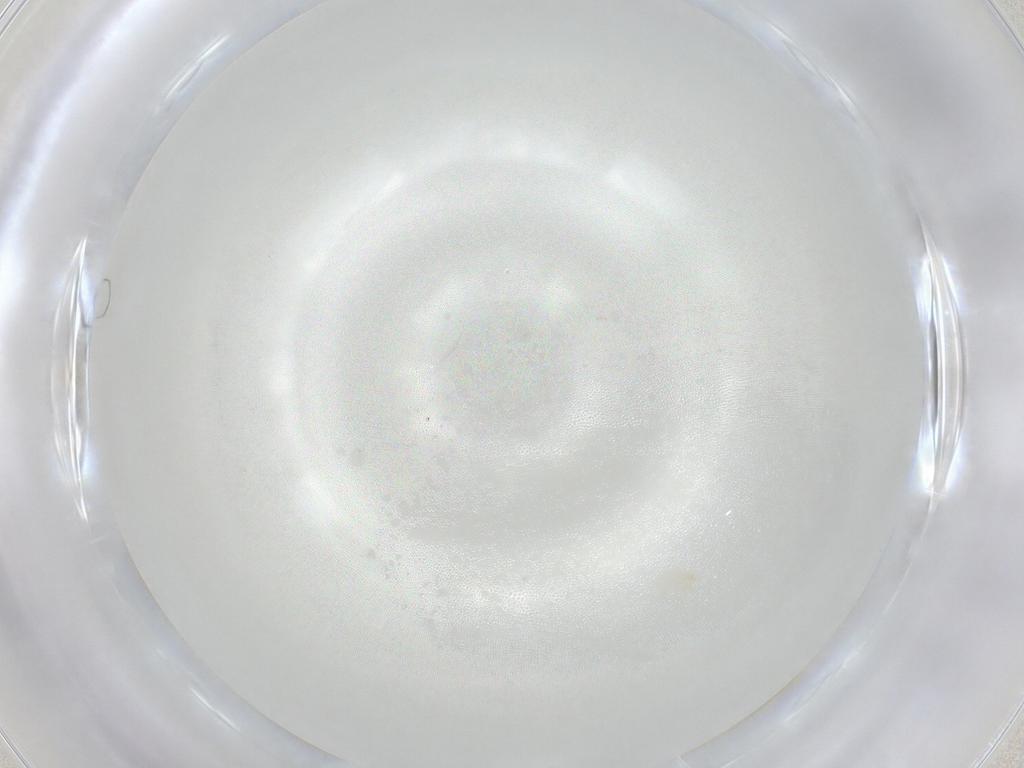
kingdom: Animalia
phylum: Arthropoda
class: Arachnida
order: Trombidiformes
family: Erythraeidae
